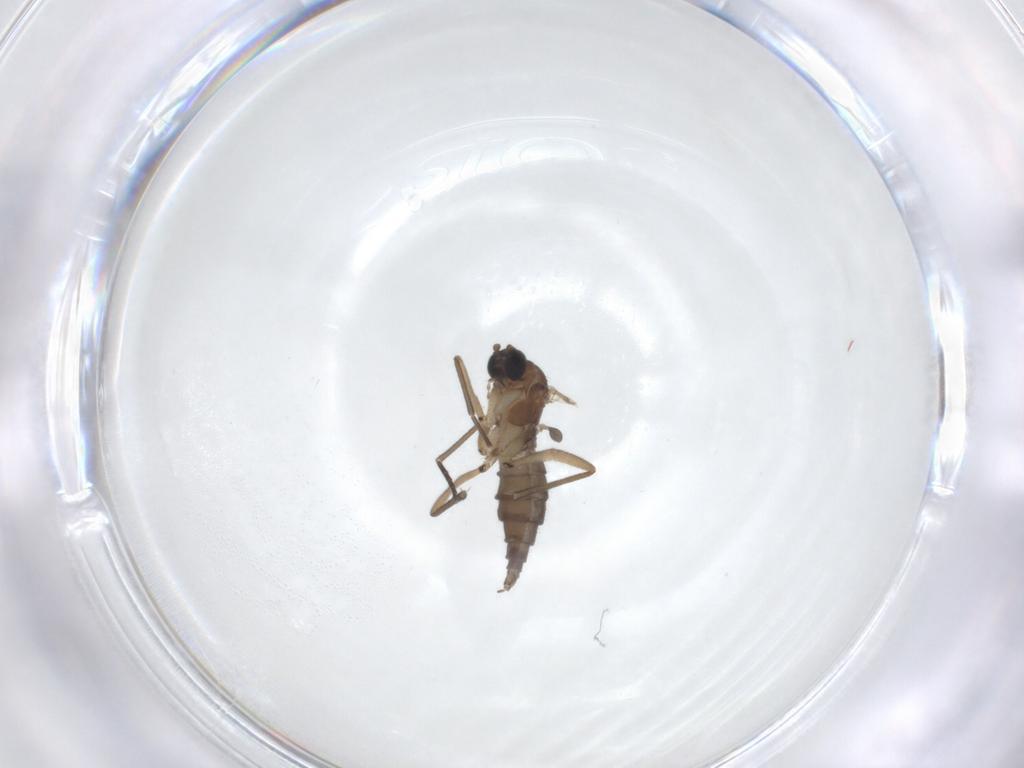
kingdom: Animalia
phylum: Arthropoda
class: Insecta
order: Diptera
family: Sciaridae
